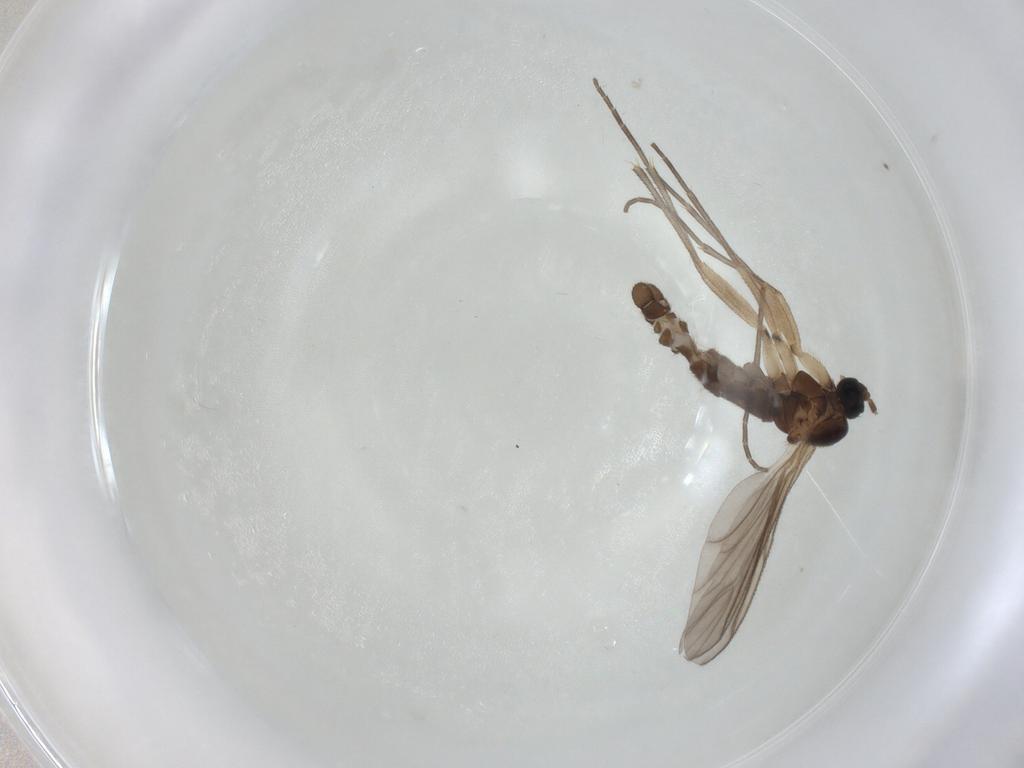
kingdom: Animalia
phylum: Arthropoda
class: Insecta
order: Diptera
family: Sciaridae
